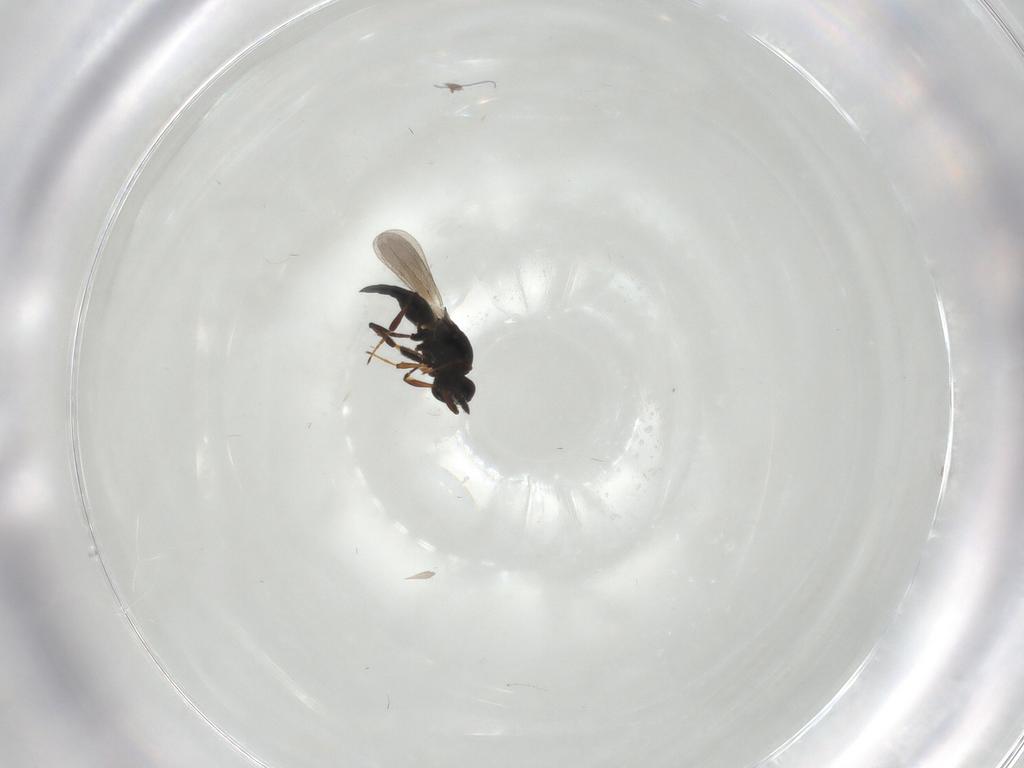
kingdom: Animalia
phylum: Arthropoda
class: Insecta
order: Hymenoptera
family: Platygastridae
